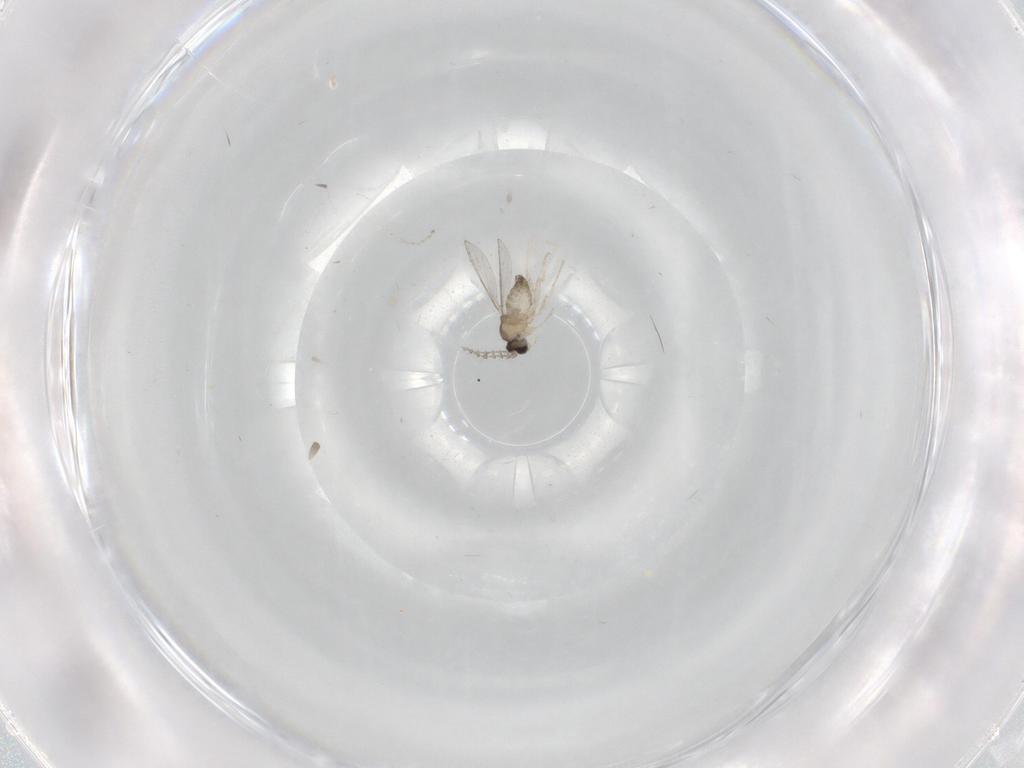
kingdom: Animalia
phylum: Arthropoda
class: Insecta
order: Diptera
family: Cecidomyiidae
